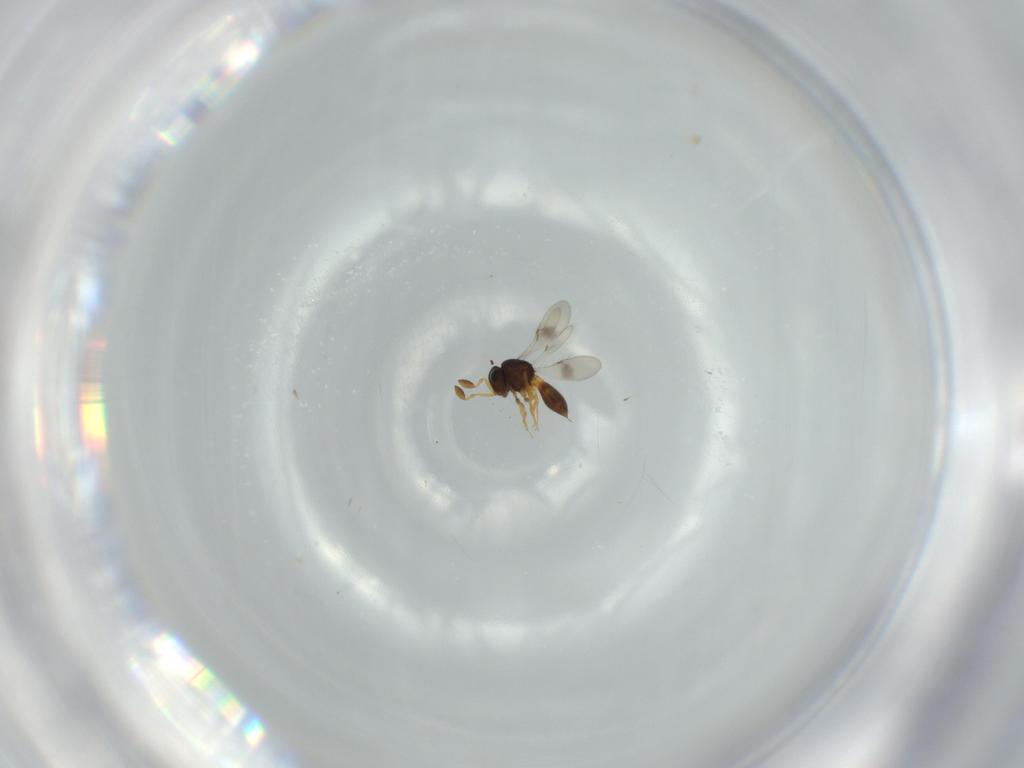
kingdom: Animalia
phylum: Arthropoda
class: Insecta
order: Hymenoptera
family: Scelionidae
